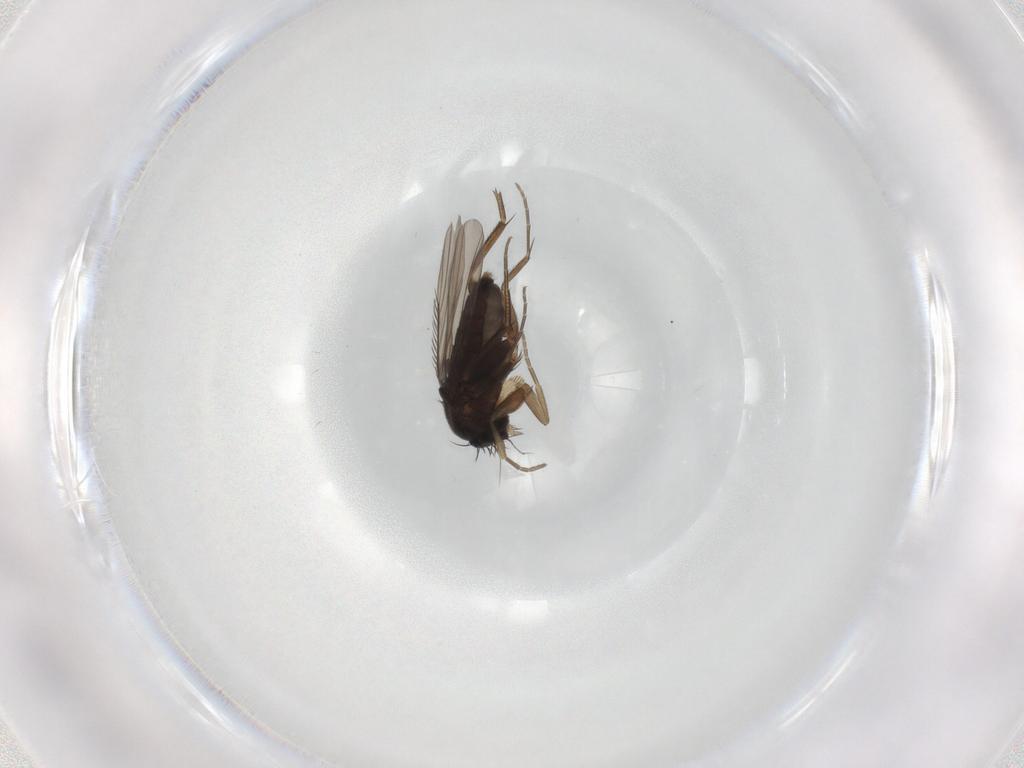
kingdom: Animalia
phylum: Arthropoda
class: Insecta
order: Diptera
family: Phoridae
